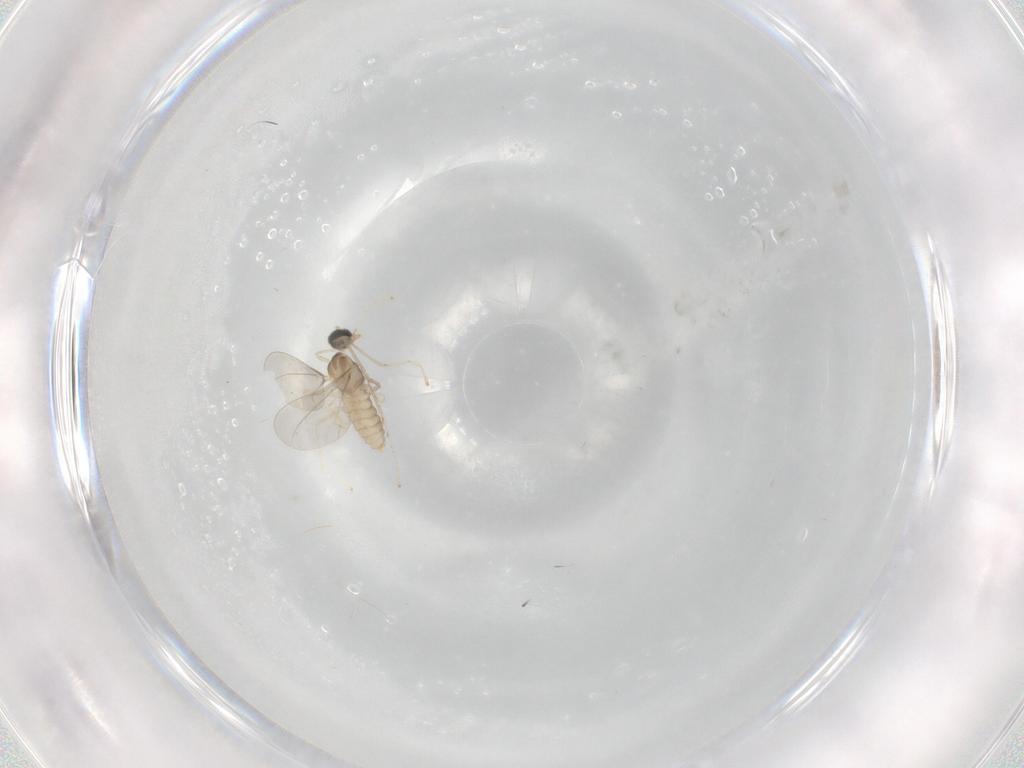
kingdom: Animalia
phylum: Arthropoda
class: Insecta
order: Diptera
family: Cecidomyiidae
